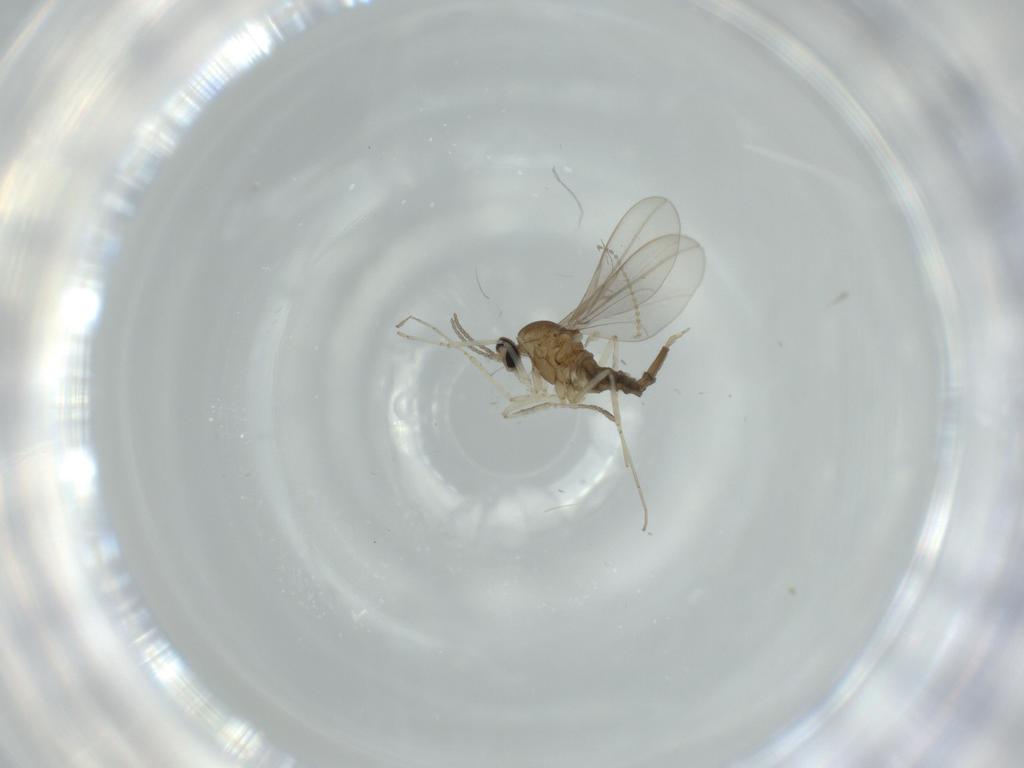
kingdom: Animalia
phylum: Arthropoda
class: Insecta
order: Diptera
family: Cecidomyiidae
